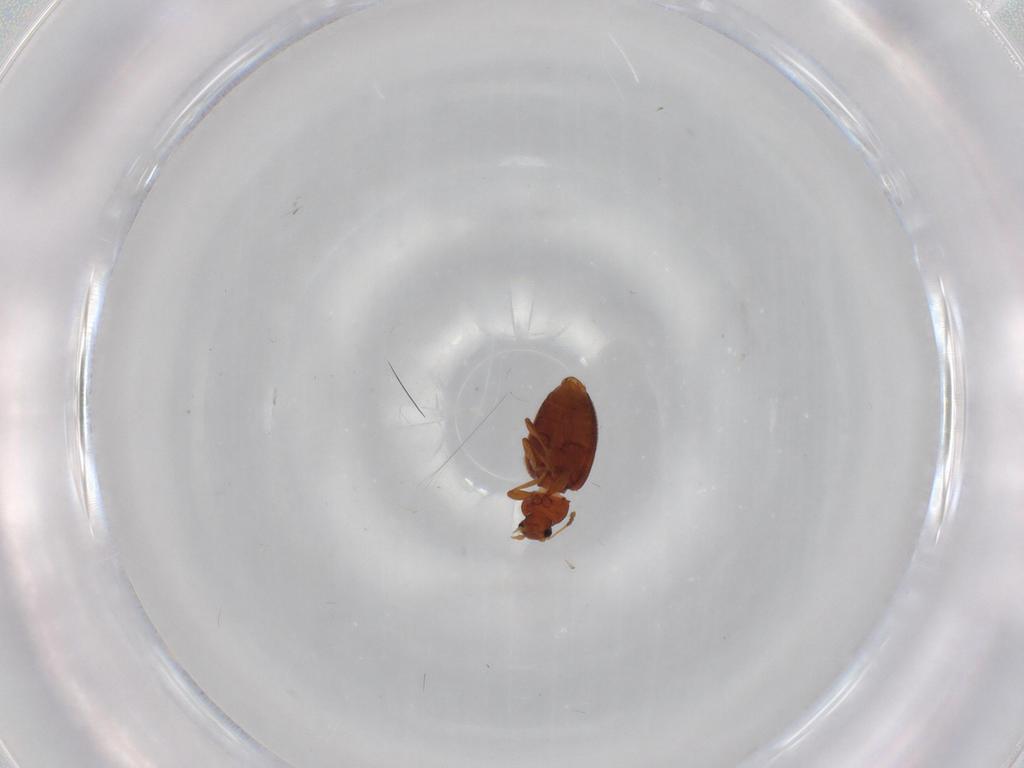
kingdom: Animalia
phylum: Arthropoda
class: Insecta
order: Coleoptera
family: Latridiidae
